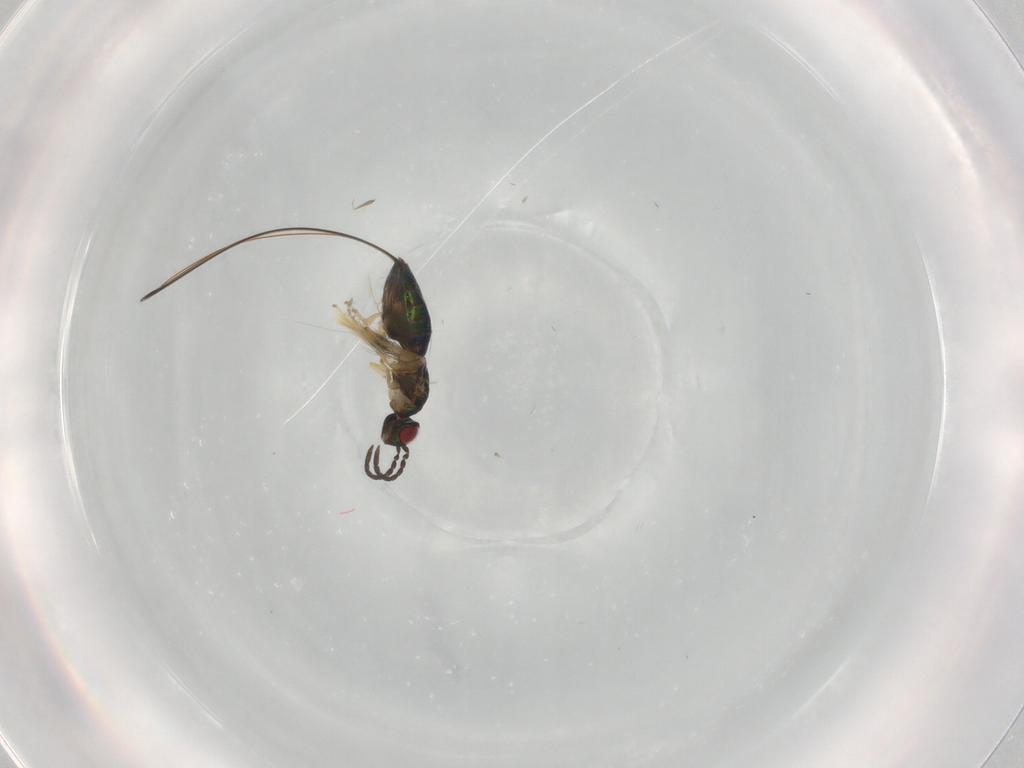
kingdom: Animalia
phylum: Arthropoda
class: Insecta
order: Hymenoptera
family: Pteromalidae
